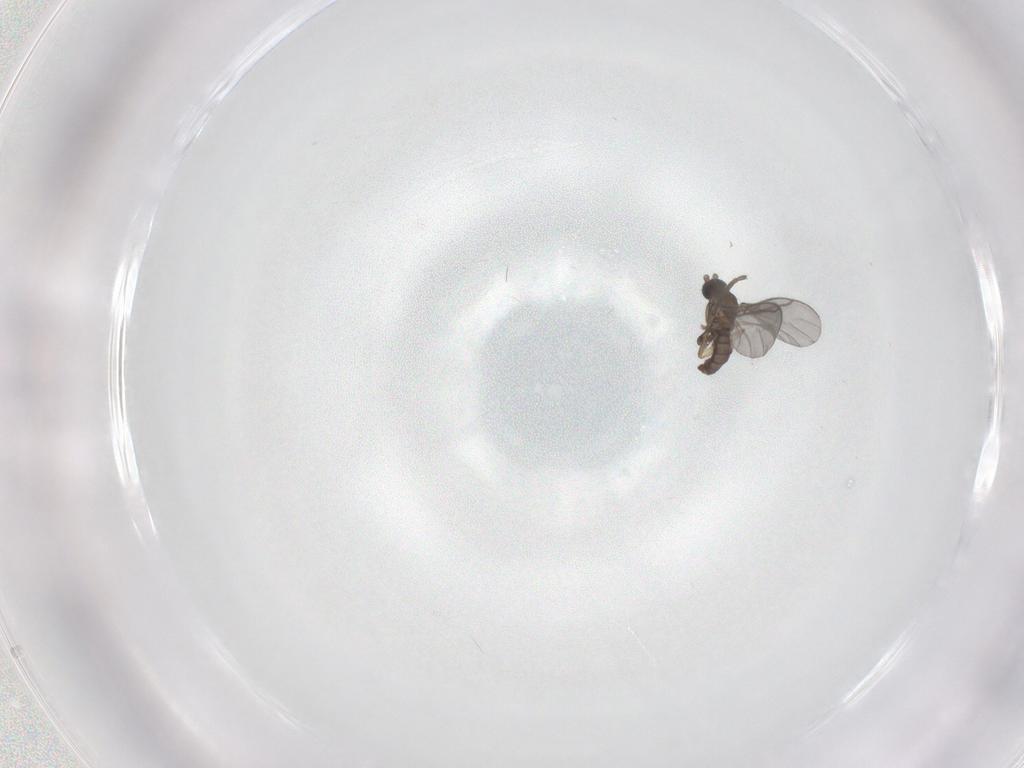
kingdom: Animalia
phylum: Arthropoda
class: Insecta
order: Diptera
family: Sciaridae
